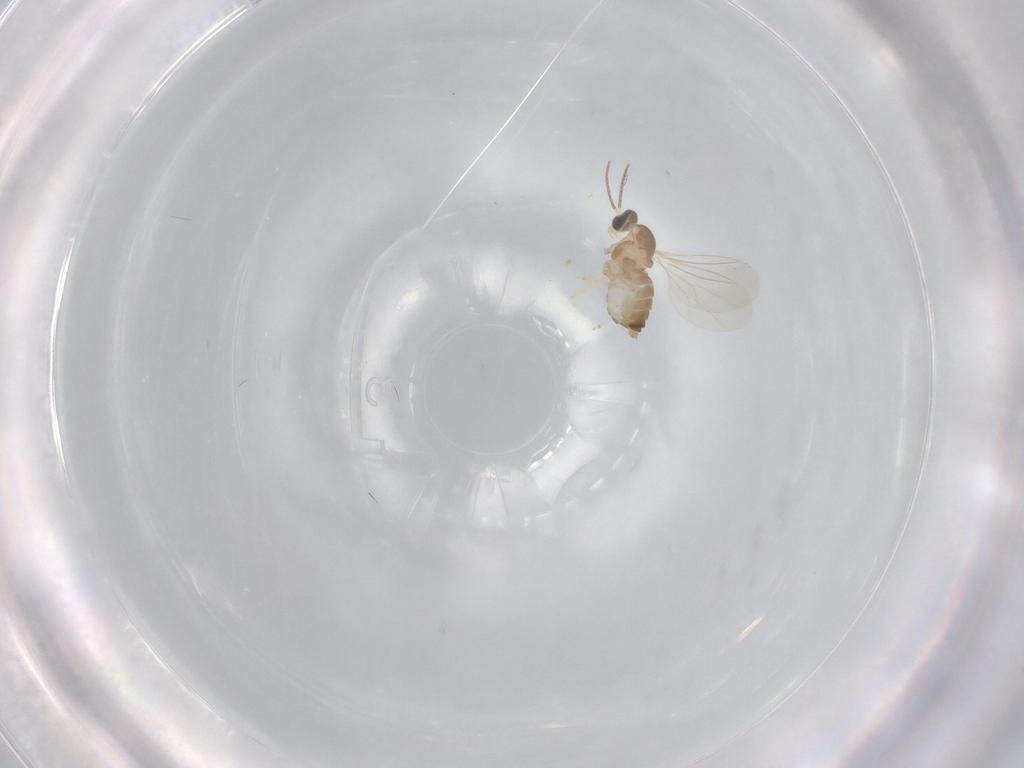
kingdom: Animalia
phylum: Arthropoda
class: Insecta
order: Diptera
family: Cecidomyiidae
